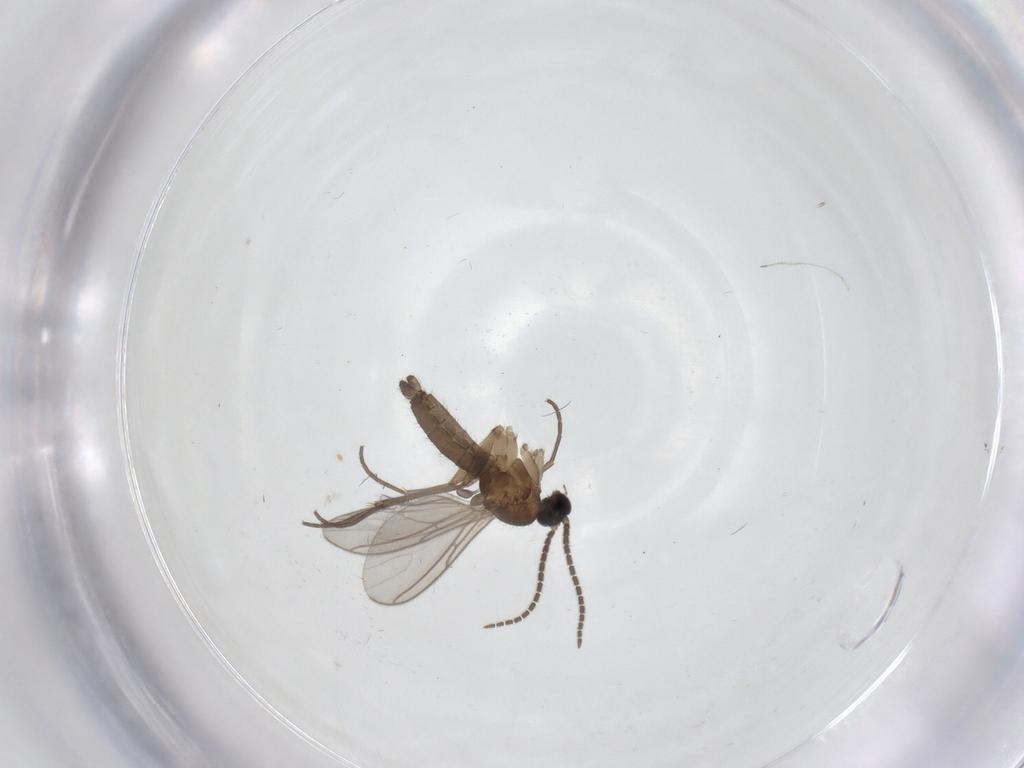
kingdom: Animalia
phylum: Arthropoda
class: Insecta
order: Diptera
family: Sciaridae
